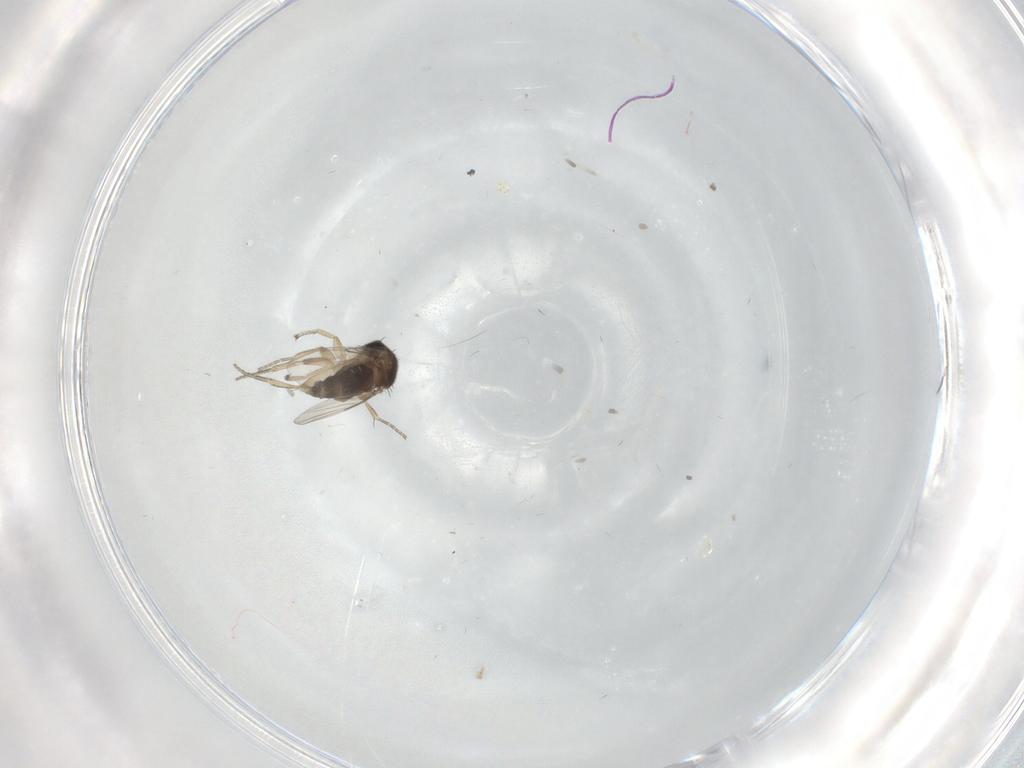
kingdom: Animalia
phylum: Arthropoda
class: Insecta
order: Diptera
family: Phoridae
